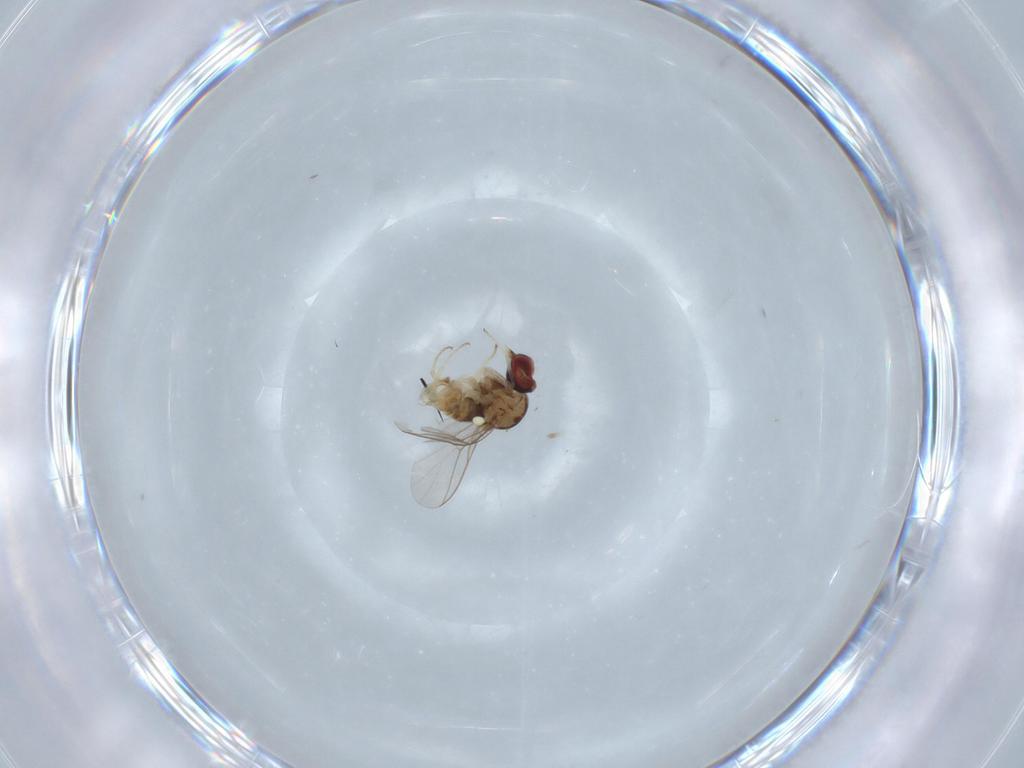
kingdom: Animalia
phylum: Arthropoda
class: Insecta
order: Diptera
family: Bombyliidae
